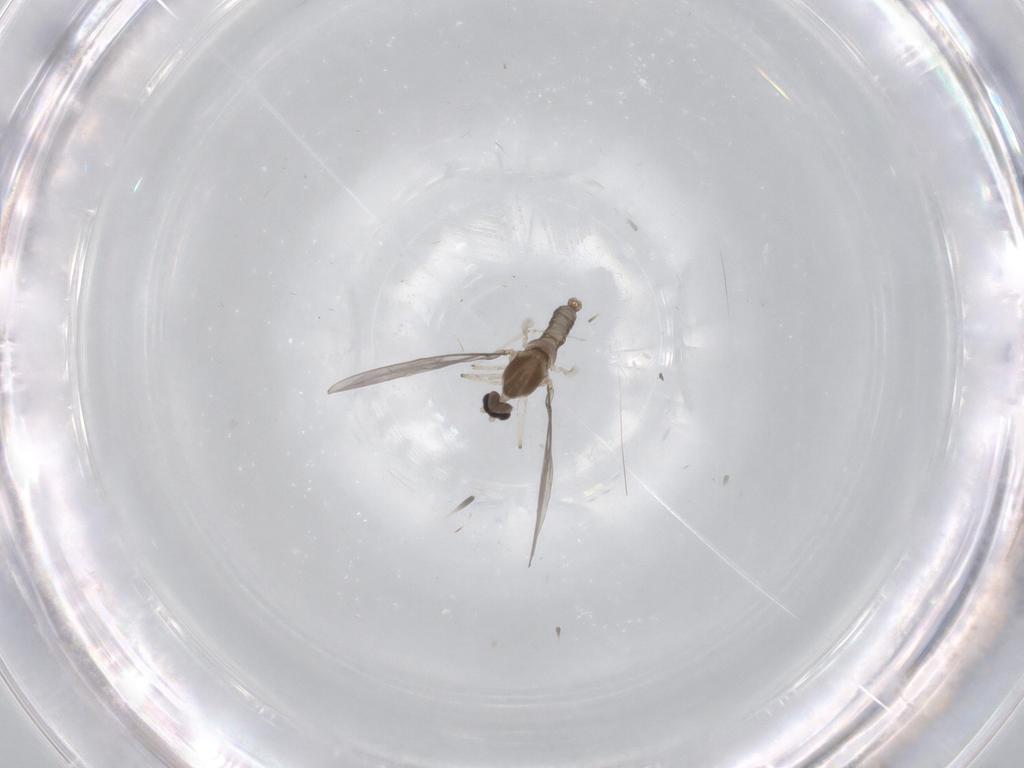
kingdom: Animalia
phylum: Arthropoda
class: Insecta
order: Diptera
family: Cecidomyiidae
